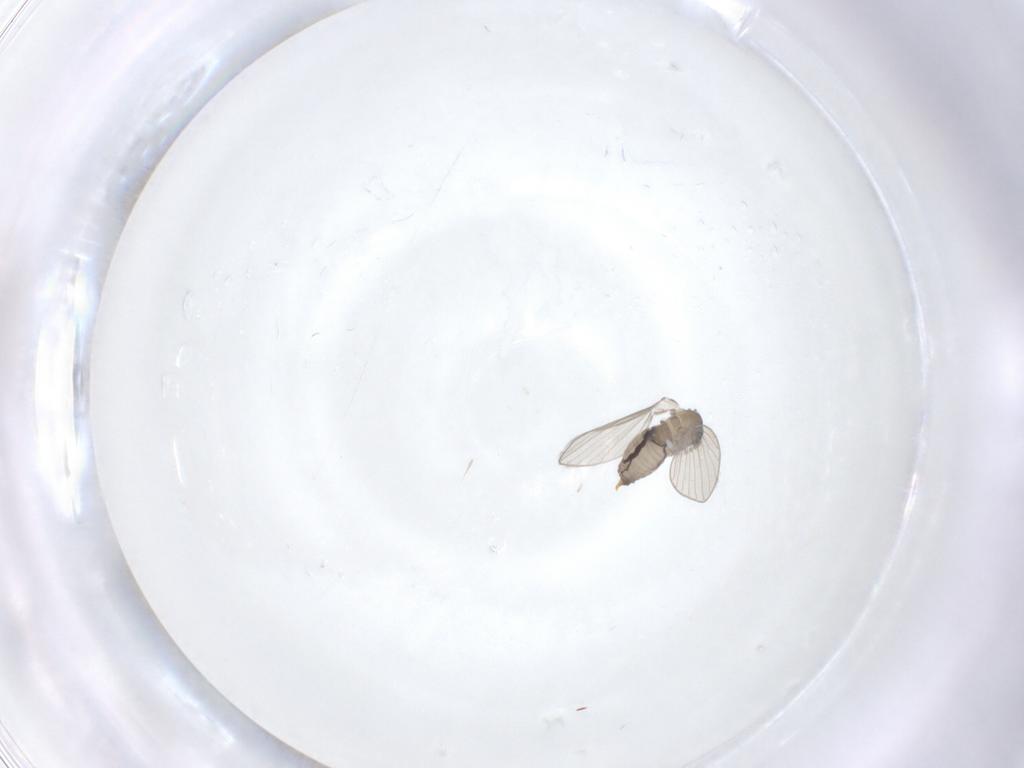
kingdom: Animalia
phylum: Arthropoda
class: Insecta
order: Diptera
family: Psychodidae
